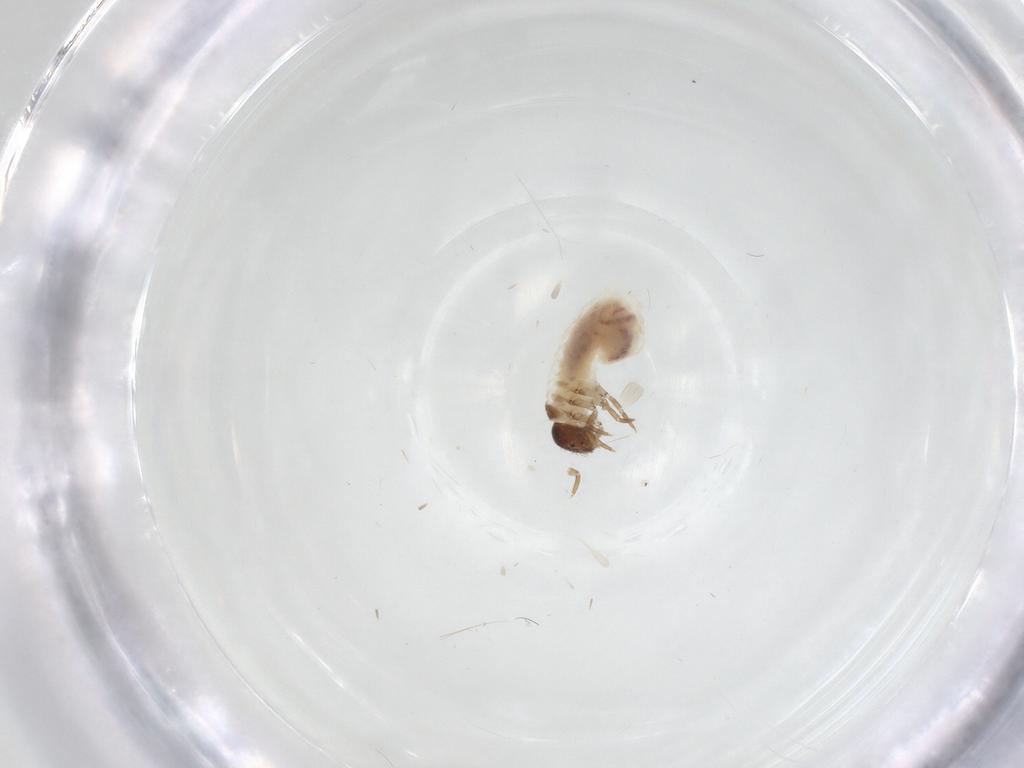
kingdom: Animalia
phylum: Arthropoda
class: Insecta
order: Coleoptera
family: Chrysomelidae
